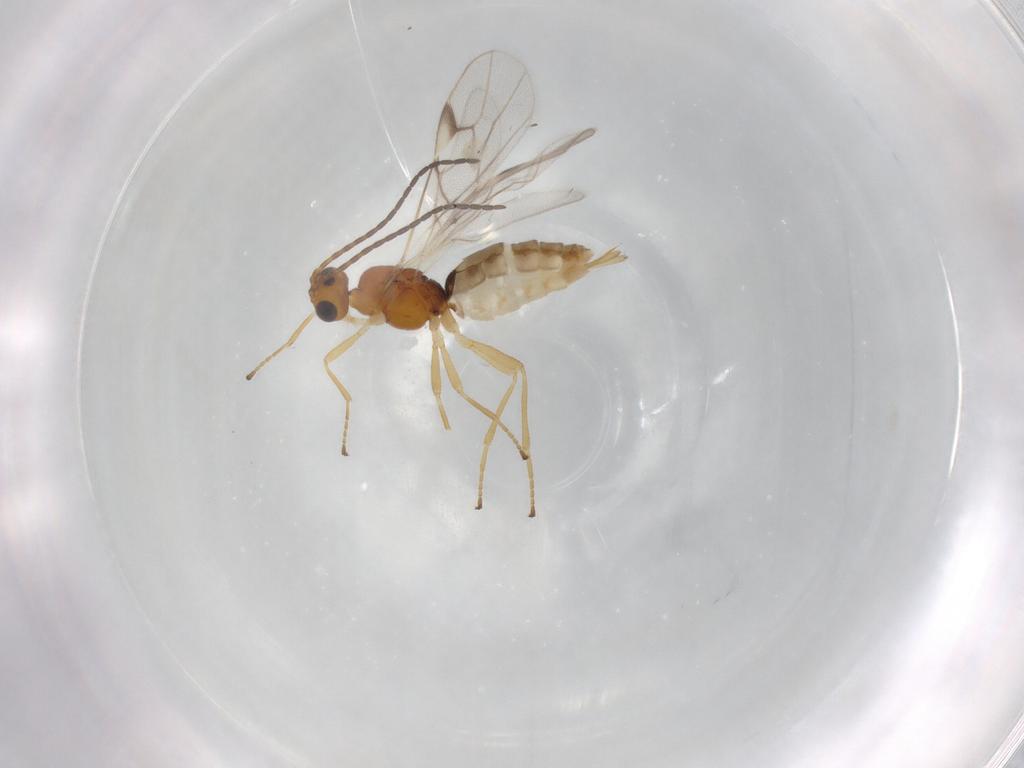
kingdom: Animalia
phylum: Arthropoda
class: Insecta
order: Hymenoptera
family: Braconidae
